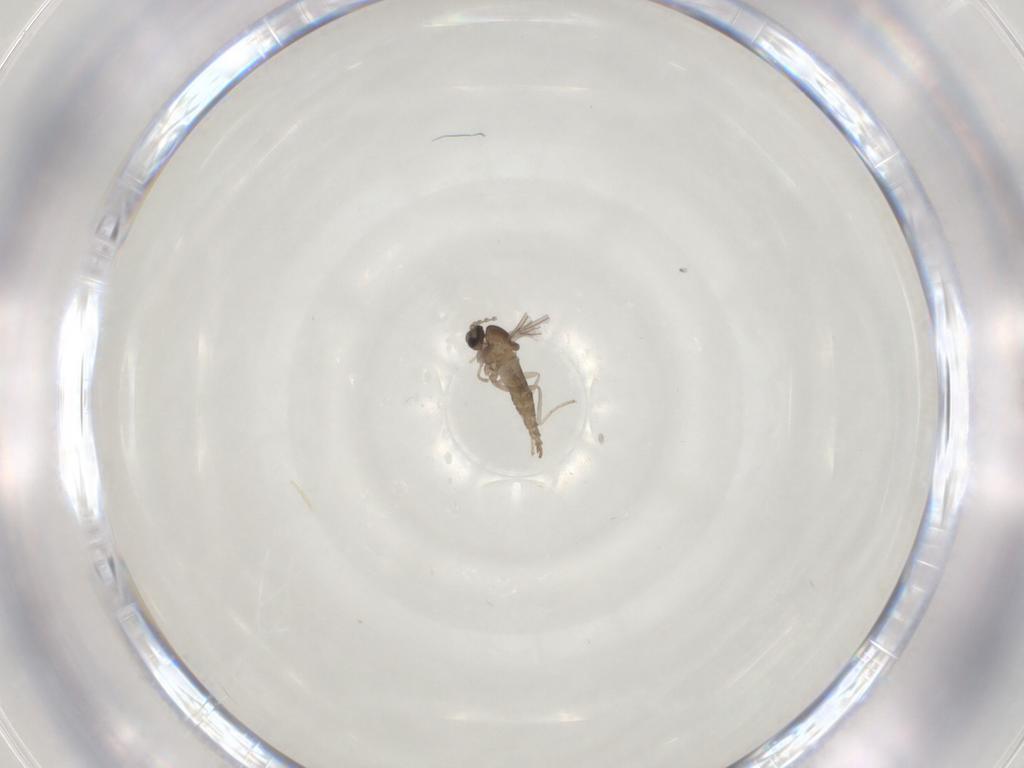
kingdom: Animalia
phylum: Arthropoda
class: Insecta
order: Diptera
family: Cecidomyiidae
